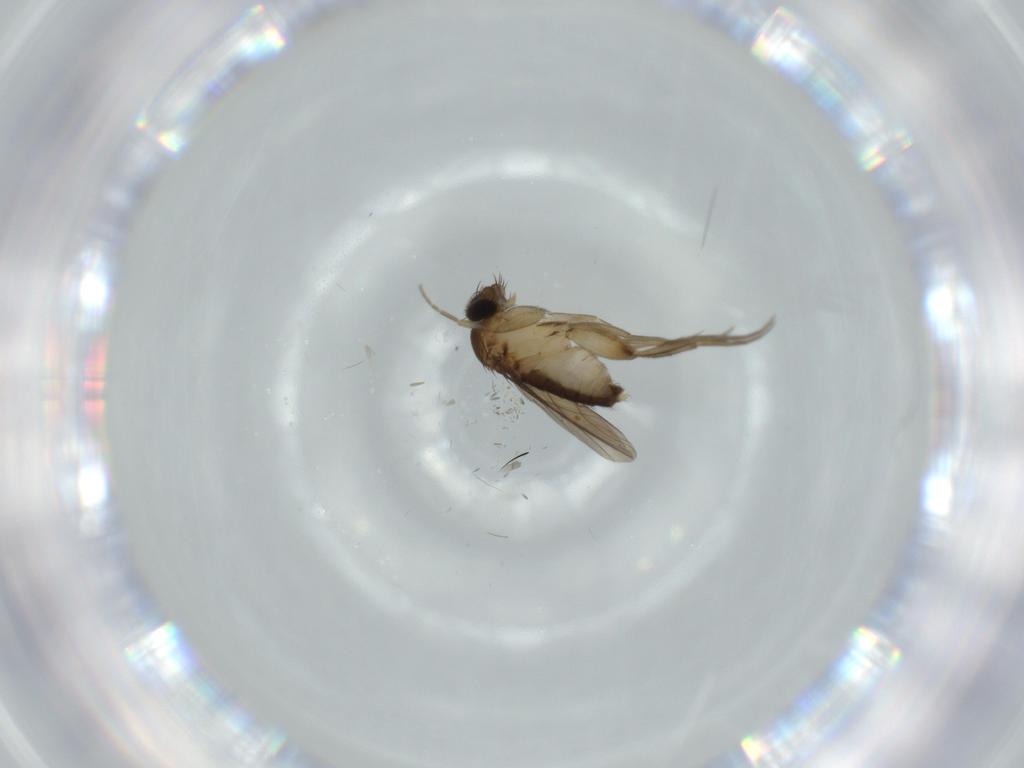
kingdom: Animalia
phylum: Arthropoda
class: Insecta
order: Diptera
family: Phoridae
